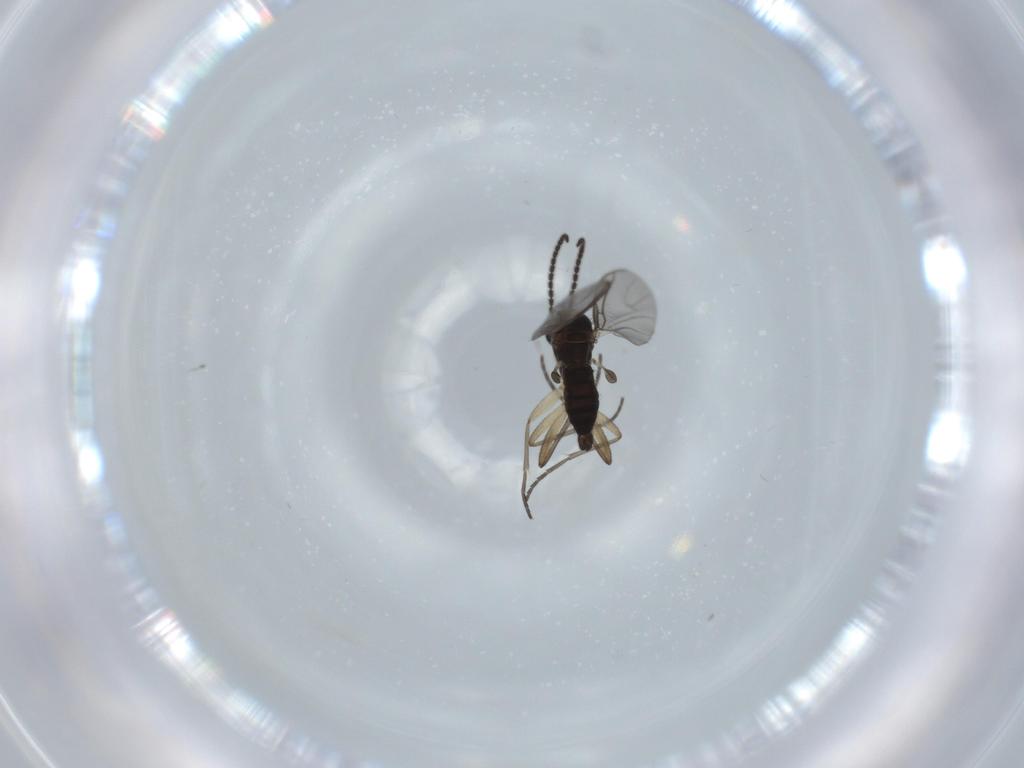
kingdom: Animalia
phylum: Arthropoda
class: Insecta
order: Diptera
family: Sciaridae
